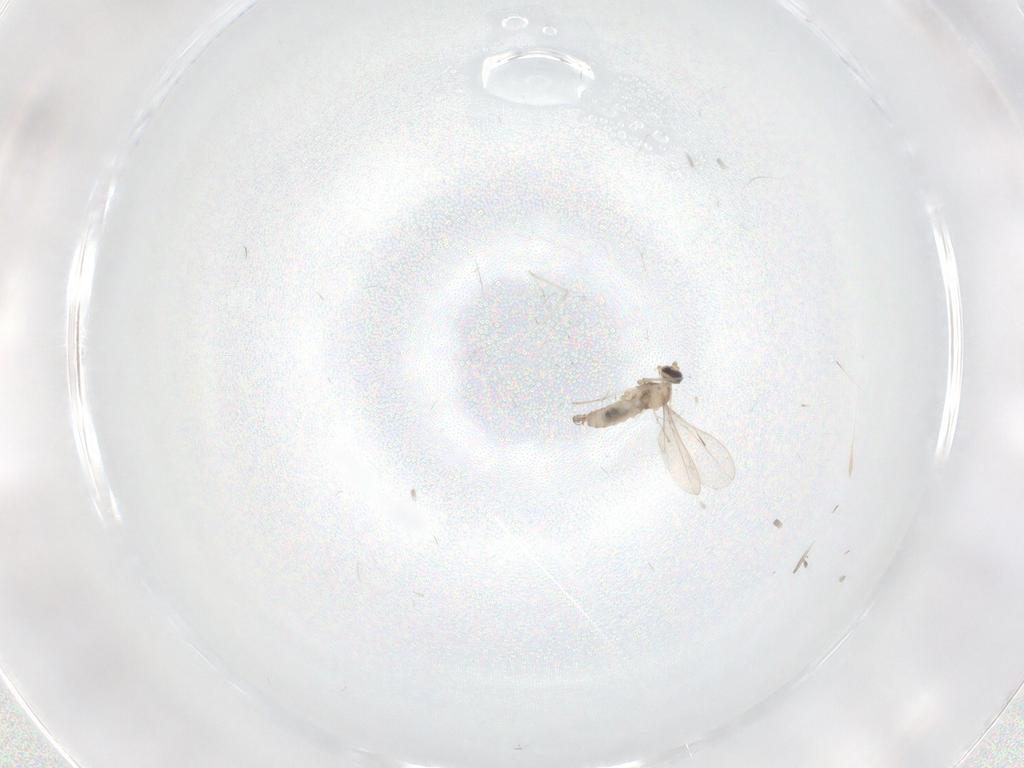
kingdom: Animalia
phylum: Arthropoda
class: Insecta
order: Diptera
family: Cecidomyiidae
